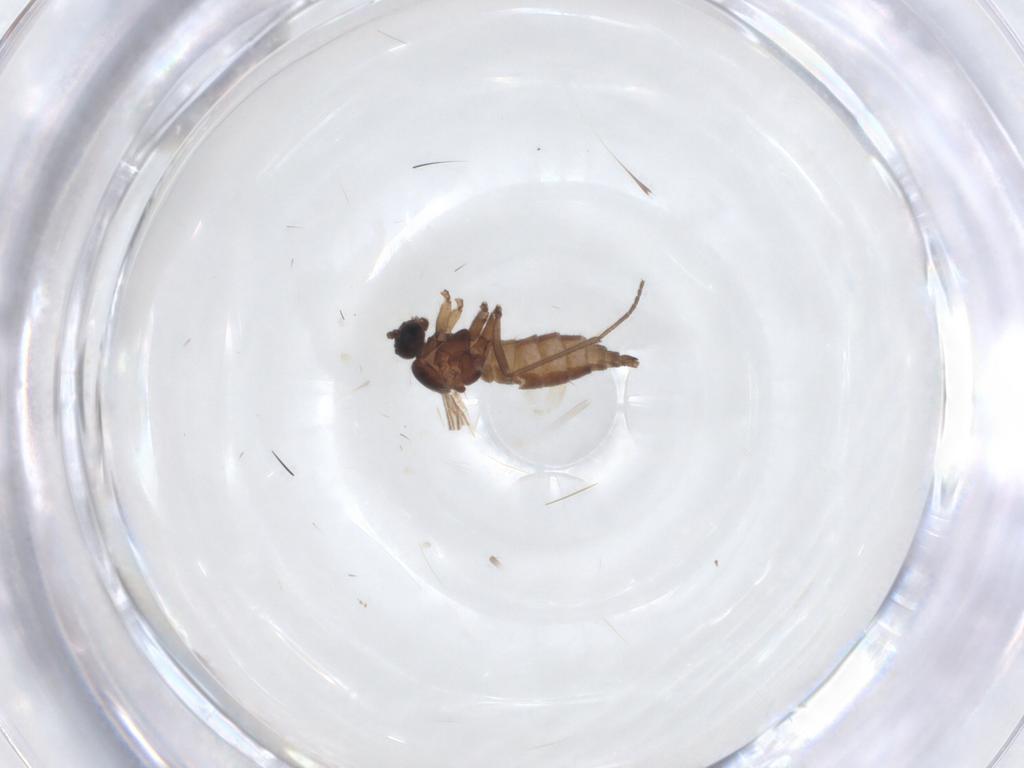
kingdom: Animalia
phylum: Arthropoda
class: Insecta
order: Diptera
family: Sciaridae
